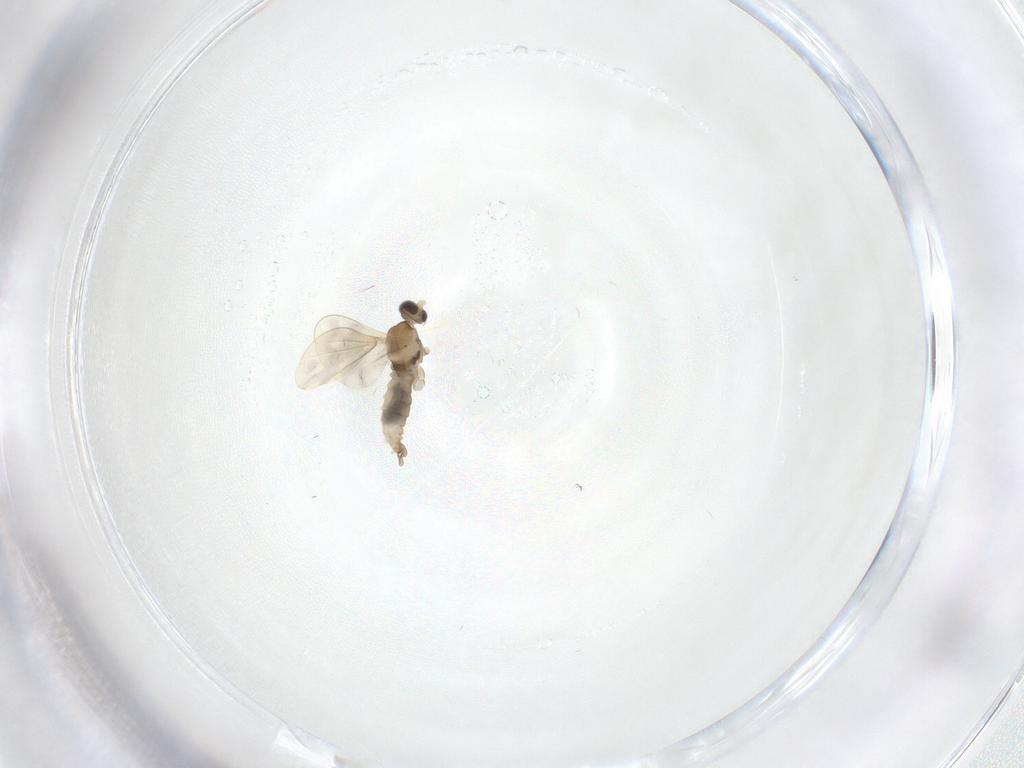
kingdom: Animalia
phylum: Arthropoda
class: Insecta
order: Diptera
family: Cecidomyiidae
